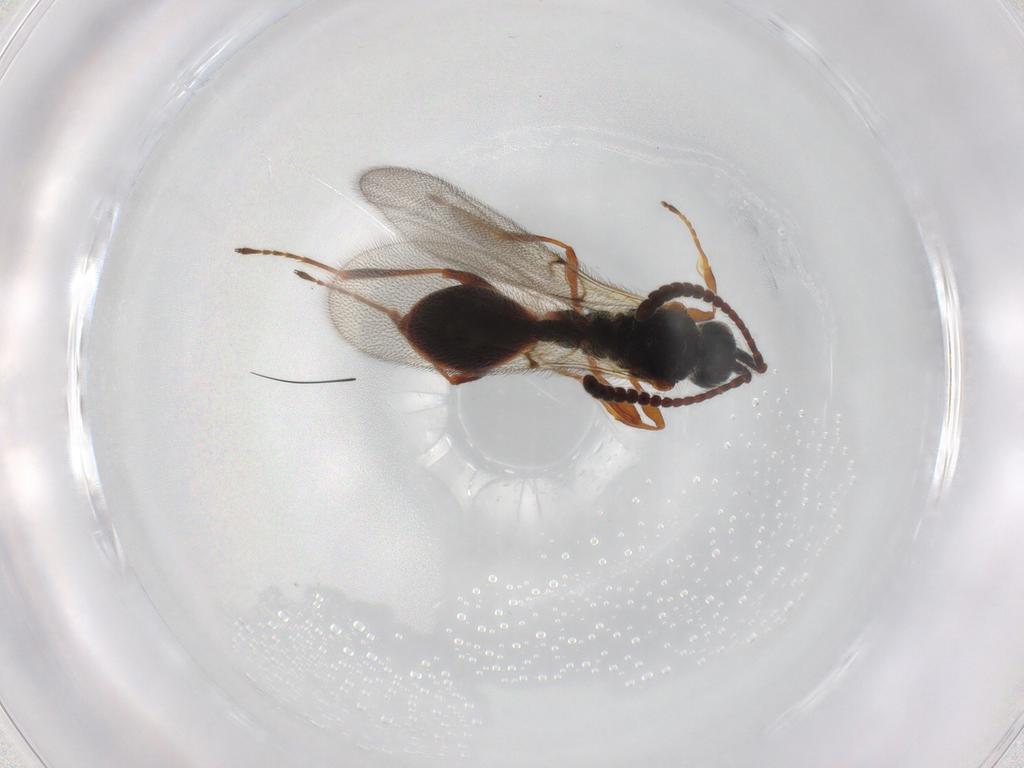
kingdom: Animalia
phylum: Arthropoda
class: Insecta
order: Hymenoptera
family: Diapriidae
